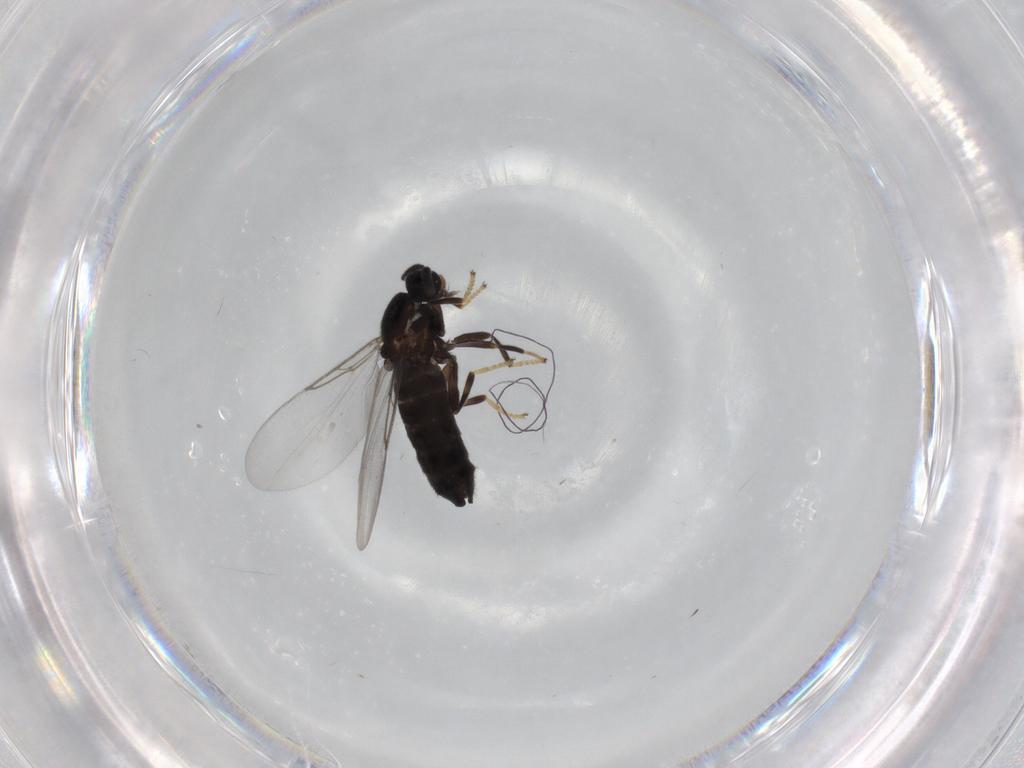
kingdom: Animalia
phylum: Arthropoda
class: Insecta
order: Diptera
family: Scatopsidae
